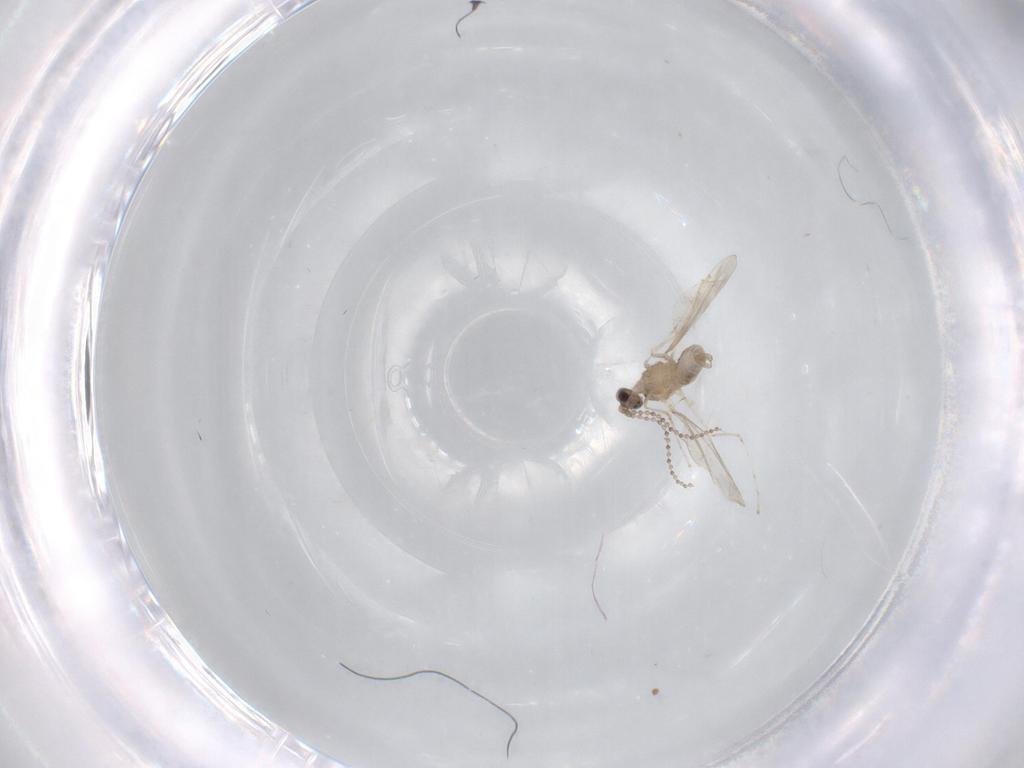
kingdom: Animalia
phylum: Arthropoda
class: Insecta
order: Diptera
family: Cecidomyiidae
